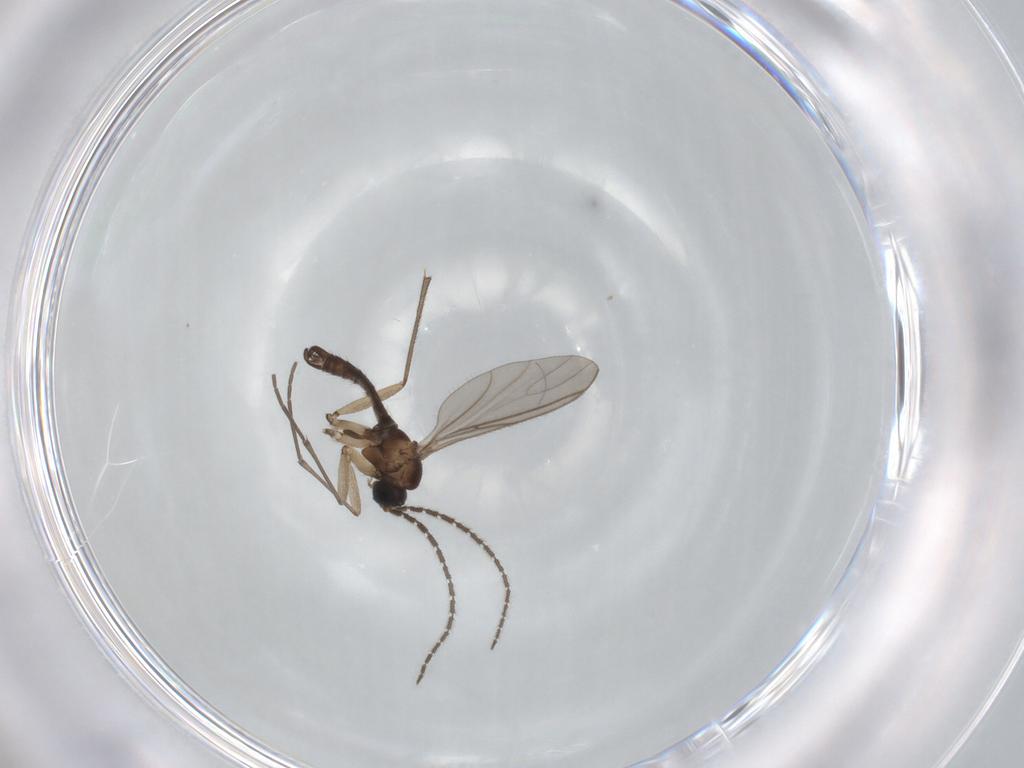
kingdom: Animalia
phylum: Arthropoda
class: Insecta
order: Diptera
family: Sciaridae
